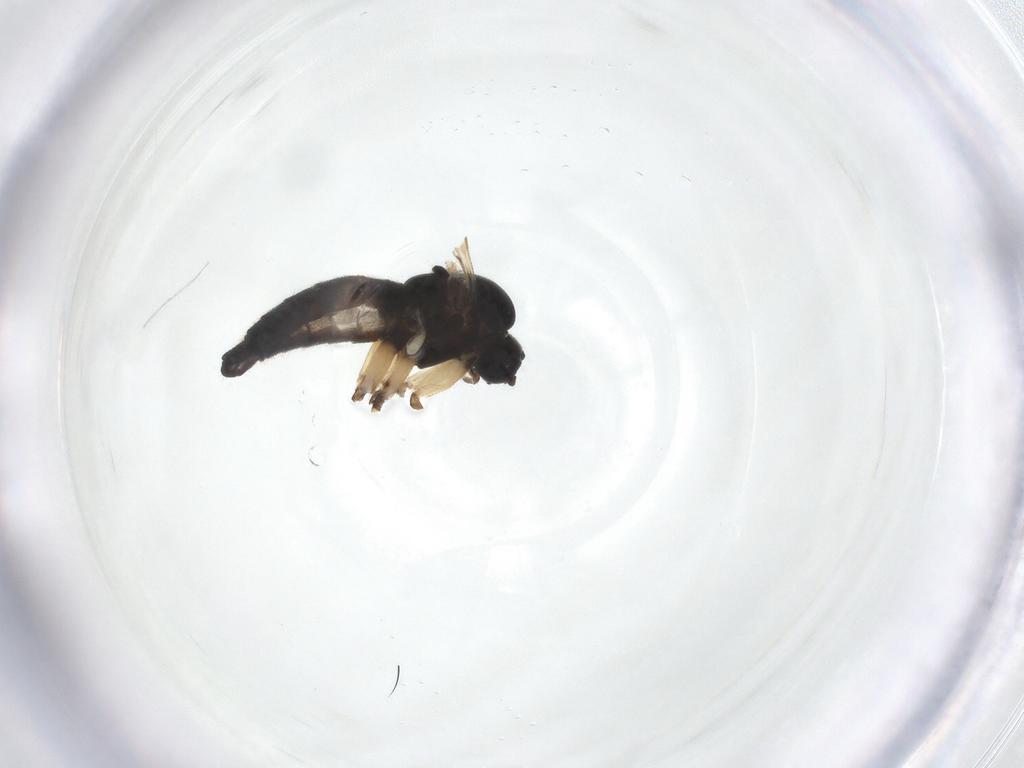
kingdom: Animalia
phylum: Arthropoda
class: Insecta
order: Diptera
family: Sciaridae
